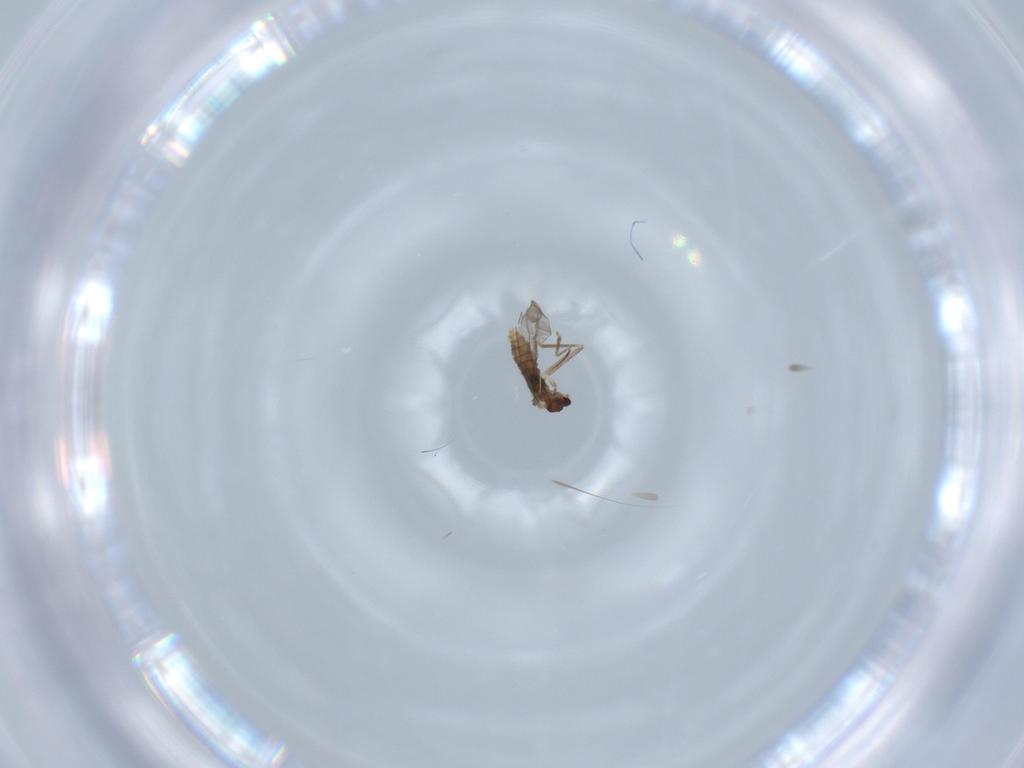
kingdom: Animalia
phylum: Arthropoda
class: Insecta
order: Diptera
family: Cecidomyiidae
